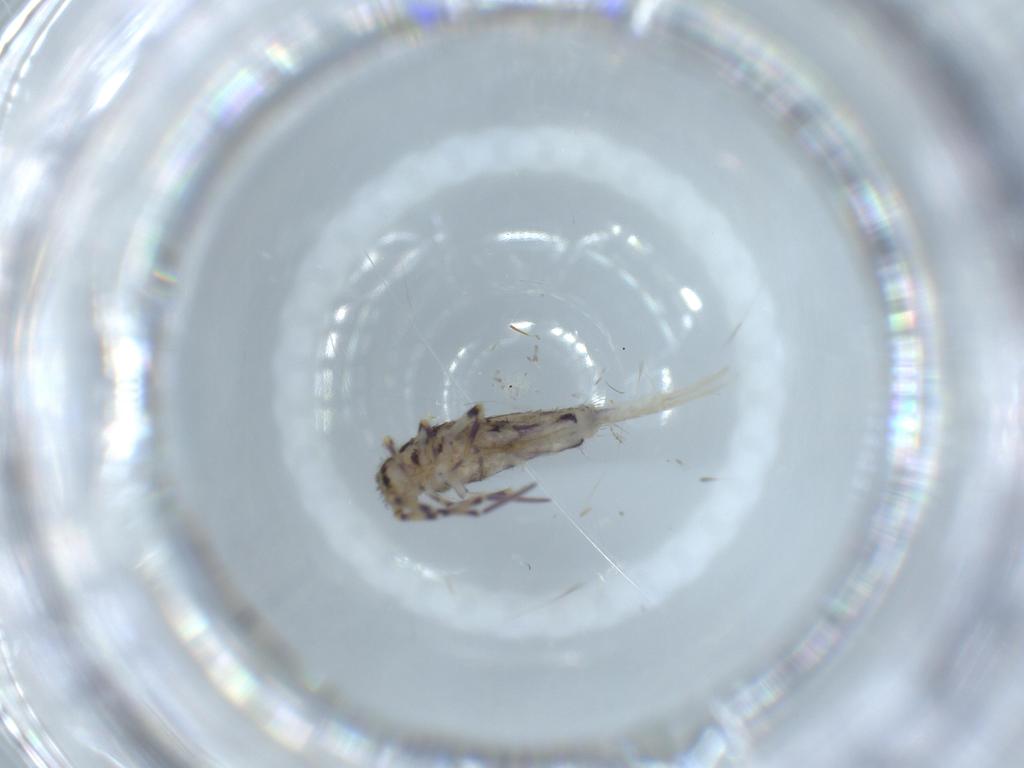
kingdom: Animalia
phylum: Arthropoda
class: Collembola
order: Entomobryomorpha
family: Entomobryidae
